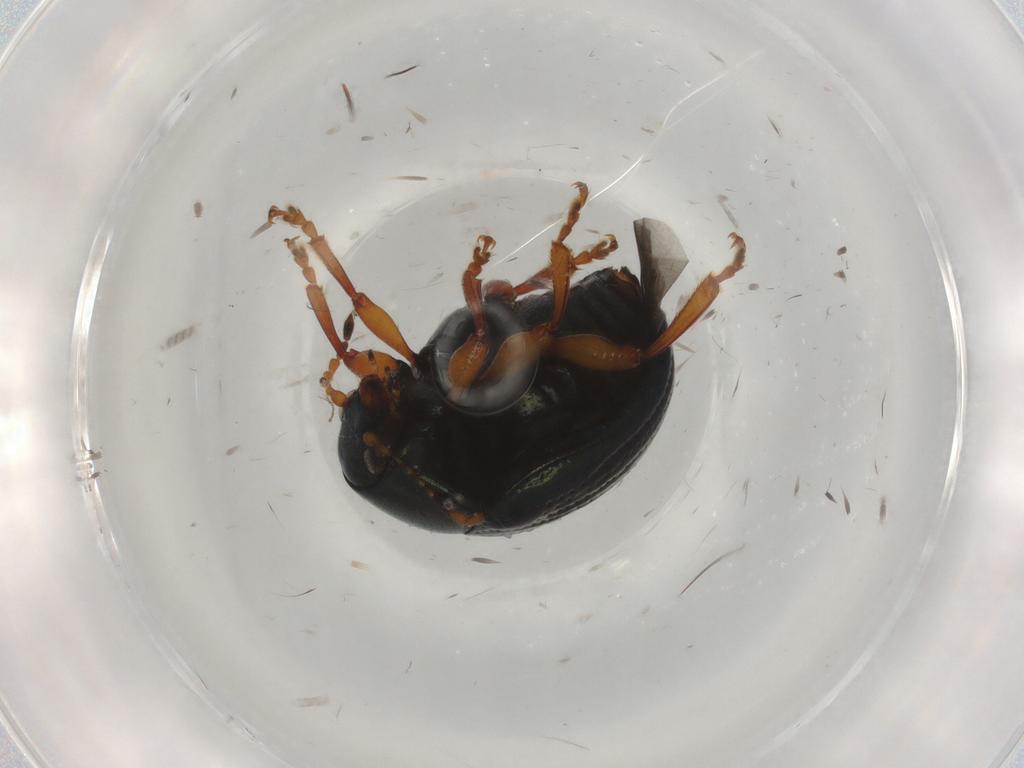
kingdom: Animalia
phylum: Arthropoda
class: Insecta
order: Coleoptera
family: Chrysomelidae
